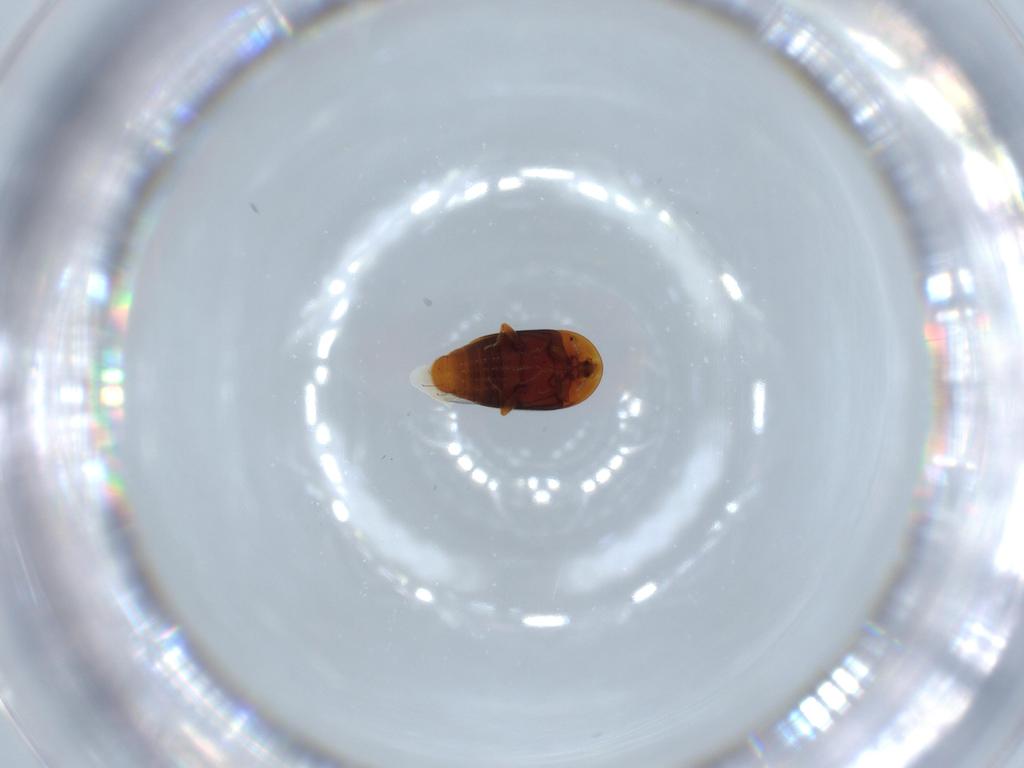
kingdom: Animalia
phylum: Arthropoda
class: Insecta
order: Coleoptera
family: Corylophidae
